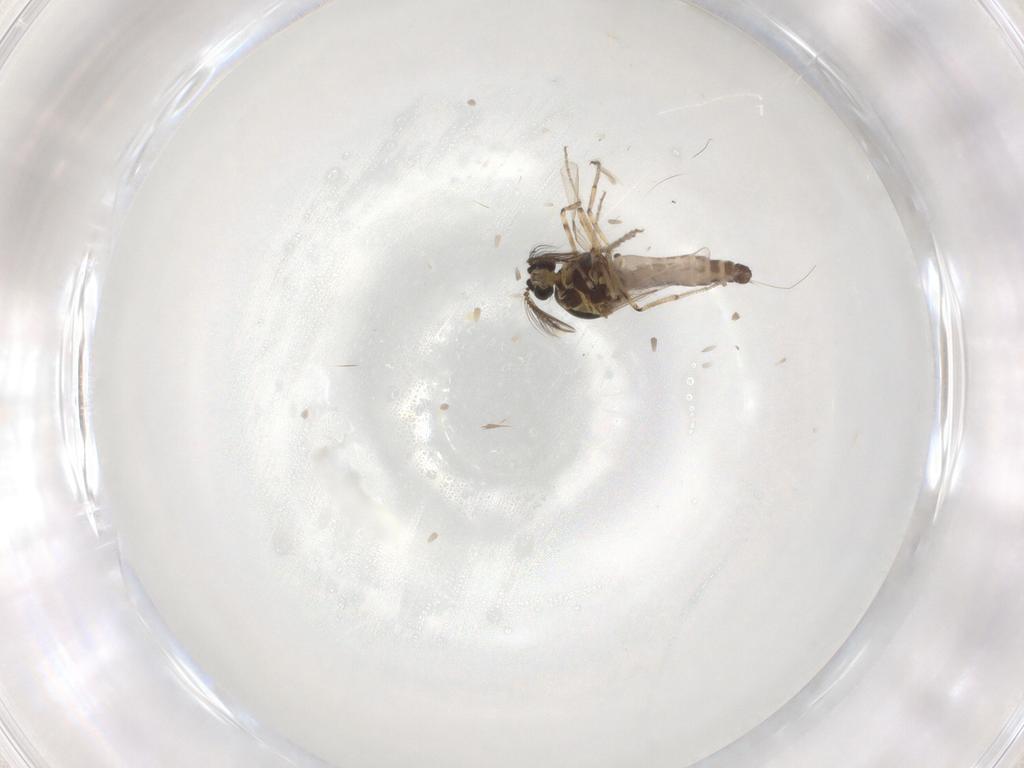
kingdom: Animalia
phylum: Arthropoda
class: Insecta
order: Diptera
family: Ceratopogonidae
